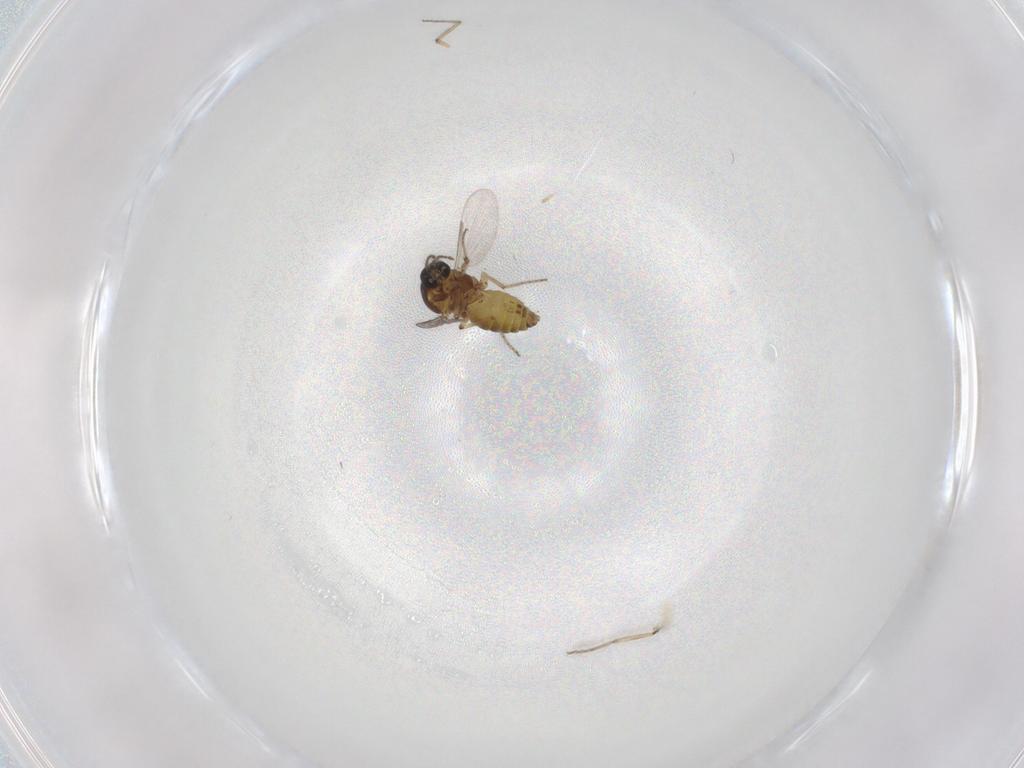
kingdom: Animalia
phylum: Arthropoda
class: Insecta
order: Diptera
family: Ceratopogonidae
